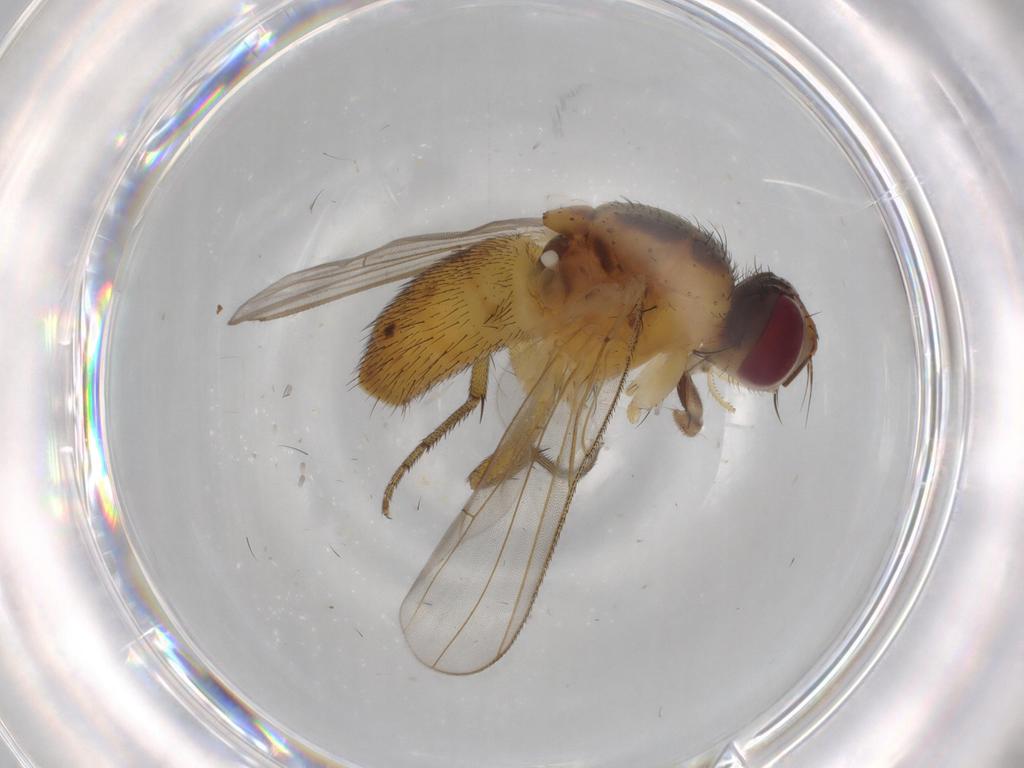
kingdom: Animalia
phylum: Arthropoda
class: Insecta
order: Diptera
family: Muscidae
